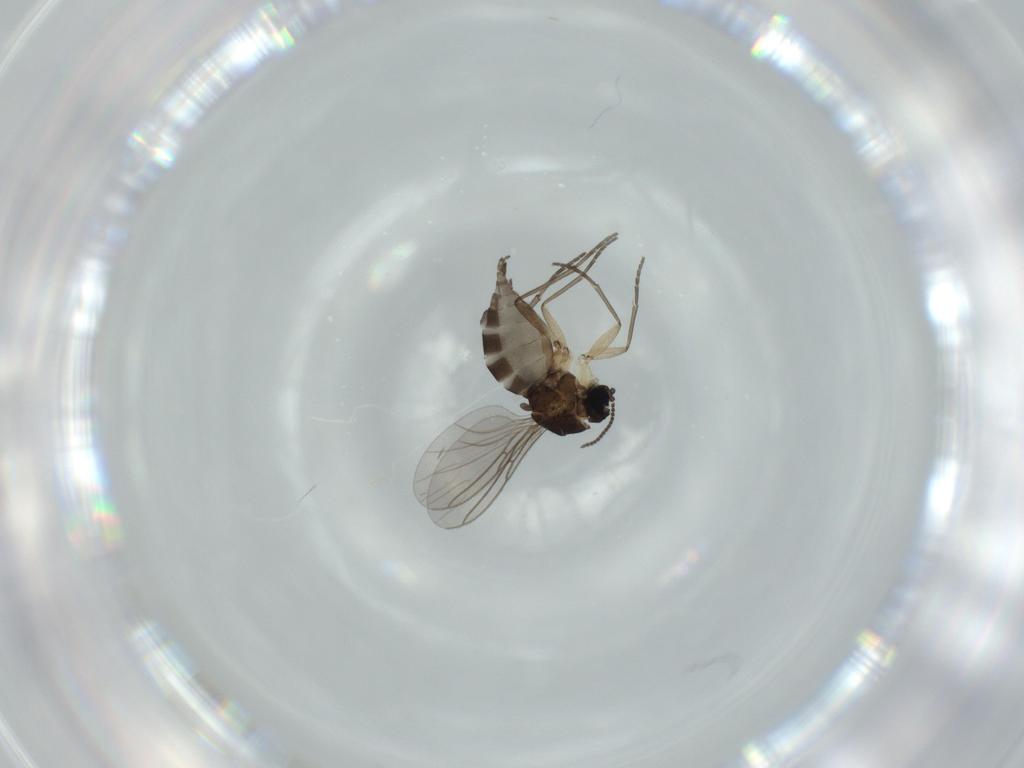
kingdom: Animalia
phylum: Arthropoda
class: Insecta
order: Diptera
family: Sciaridae
